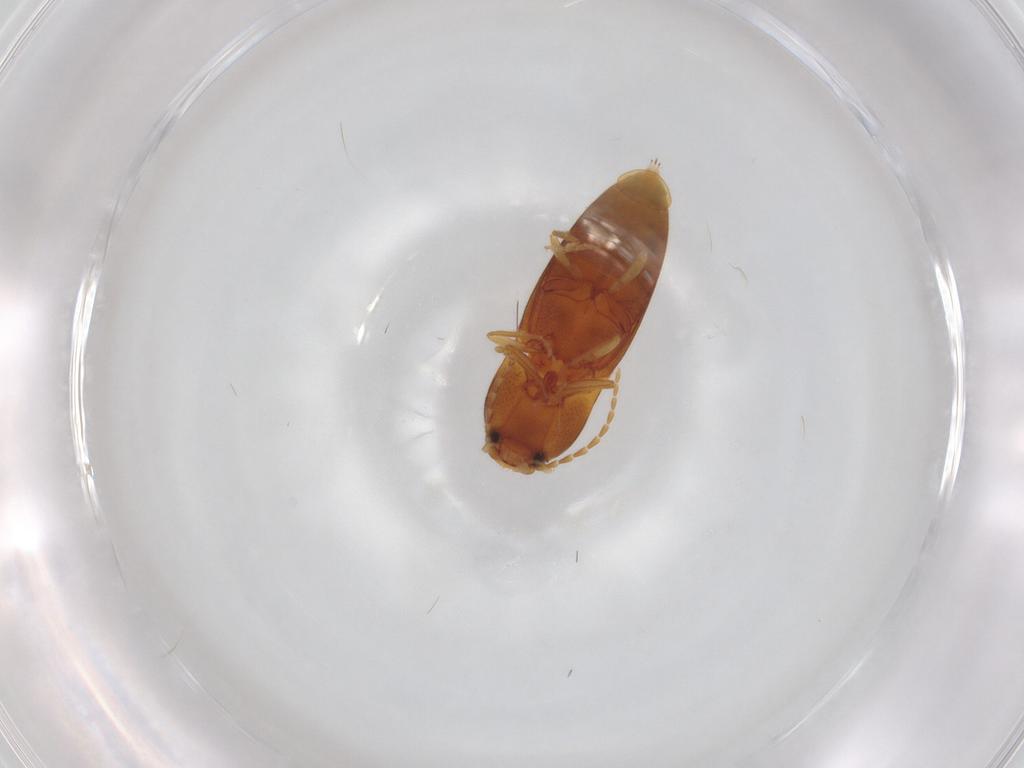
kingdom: Animalia
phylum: Arthropoda
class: Insecta
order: Coleoptera
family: Elateridae
